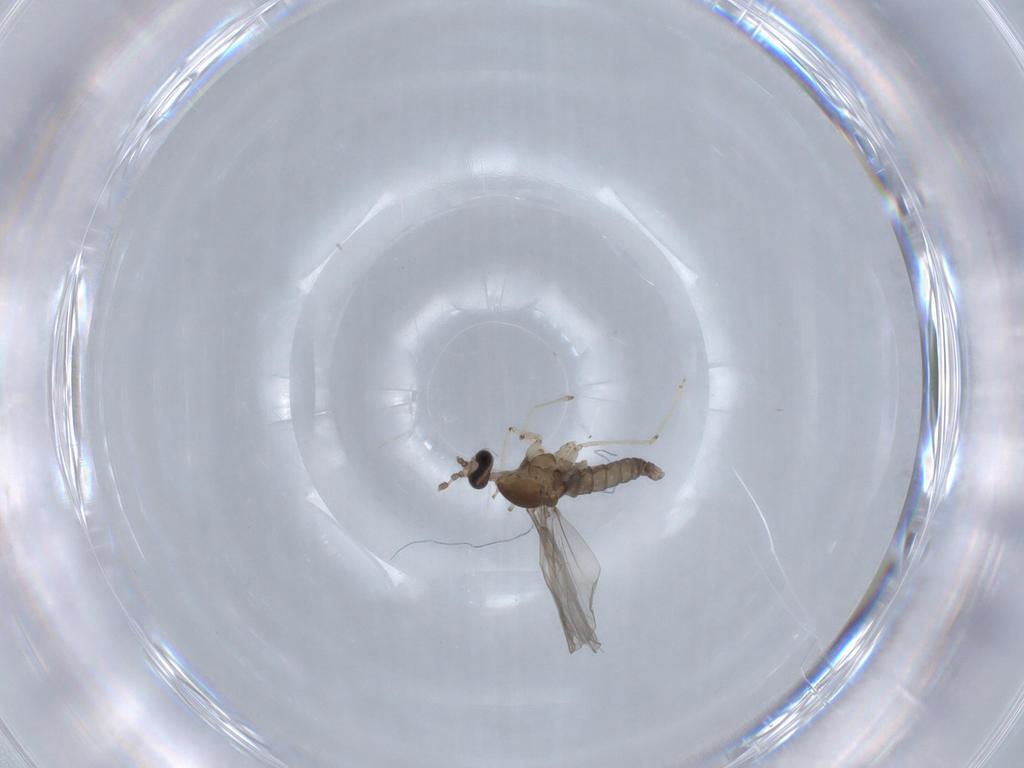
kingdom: Animalia
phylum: Arthropoda
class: Insecta
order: Diptera
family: Cecidomyiidae
